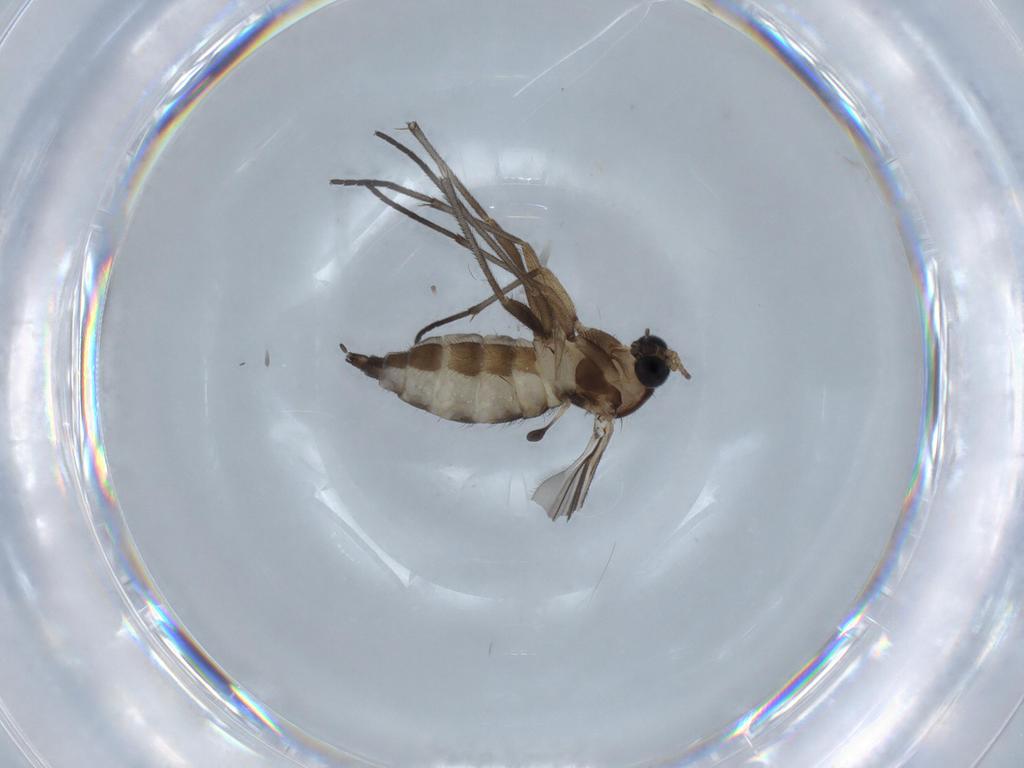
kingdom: Animalia
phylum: Arthropoda
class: Insecta
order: Diptera
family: Sciaridae
